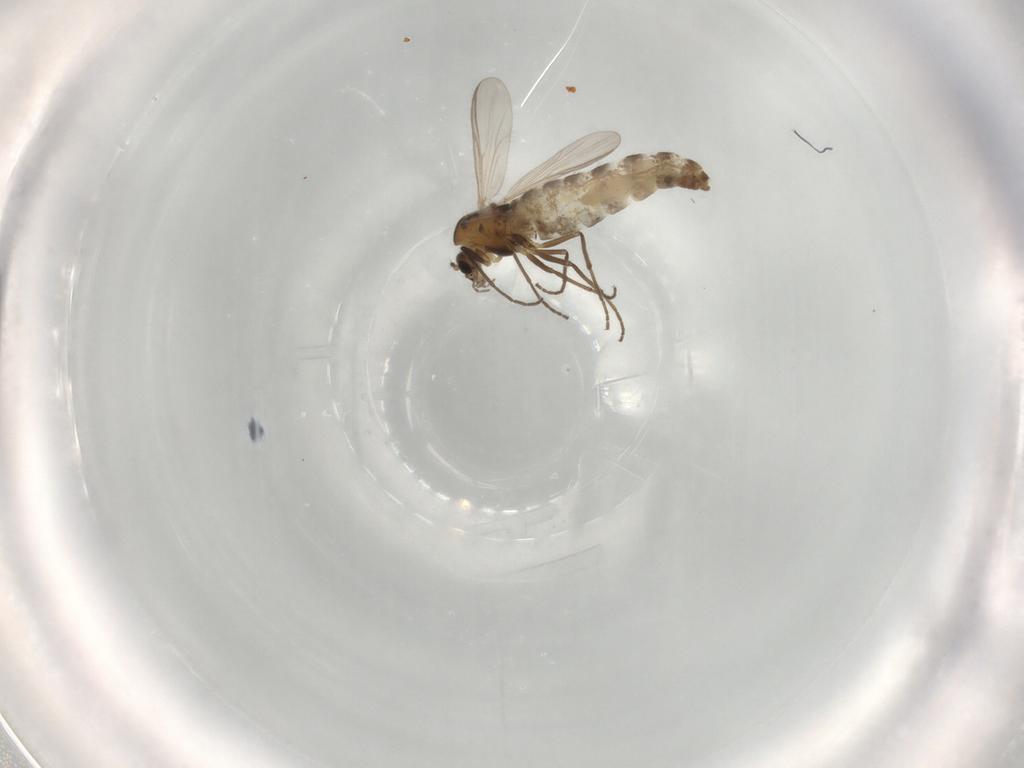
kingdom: Animalia
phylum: Arthropoda
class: Insecta
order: Diptera
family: Chironomidae
